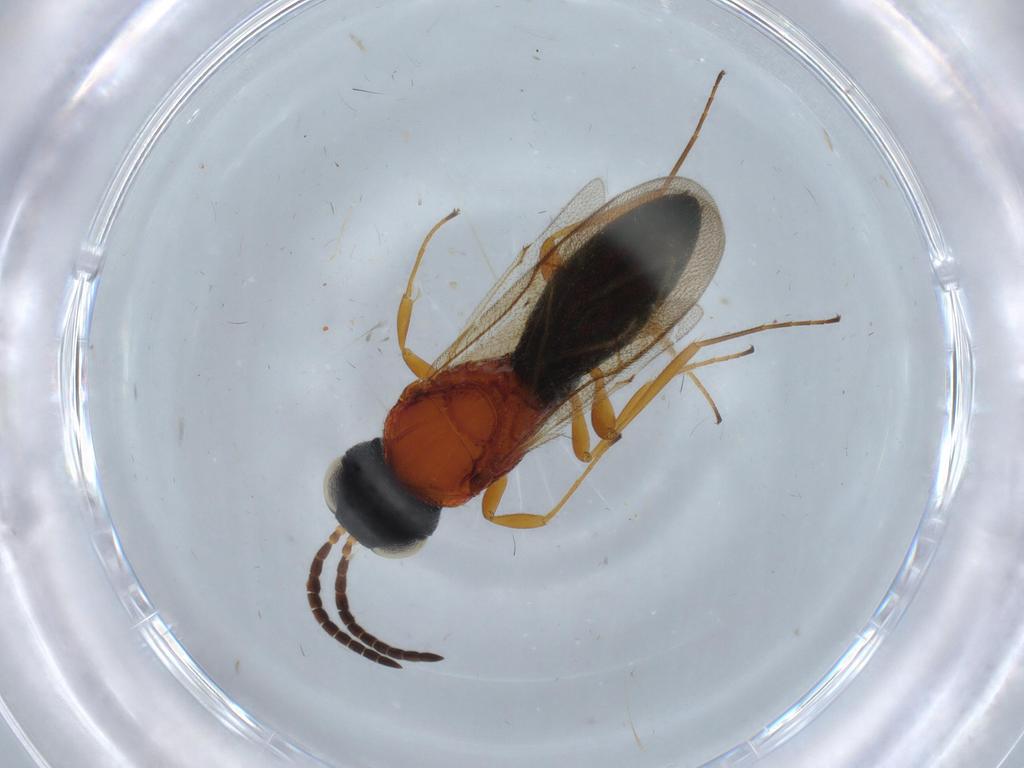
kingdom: Animalia
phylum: Arthropoda
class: Insecta
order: Hymenoptera
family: Scelionidae
